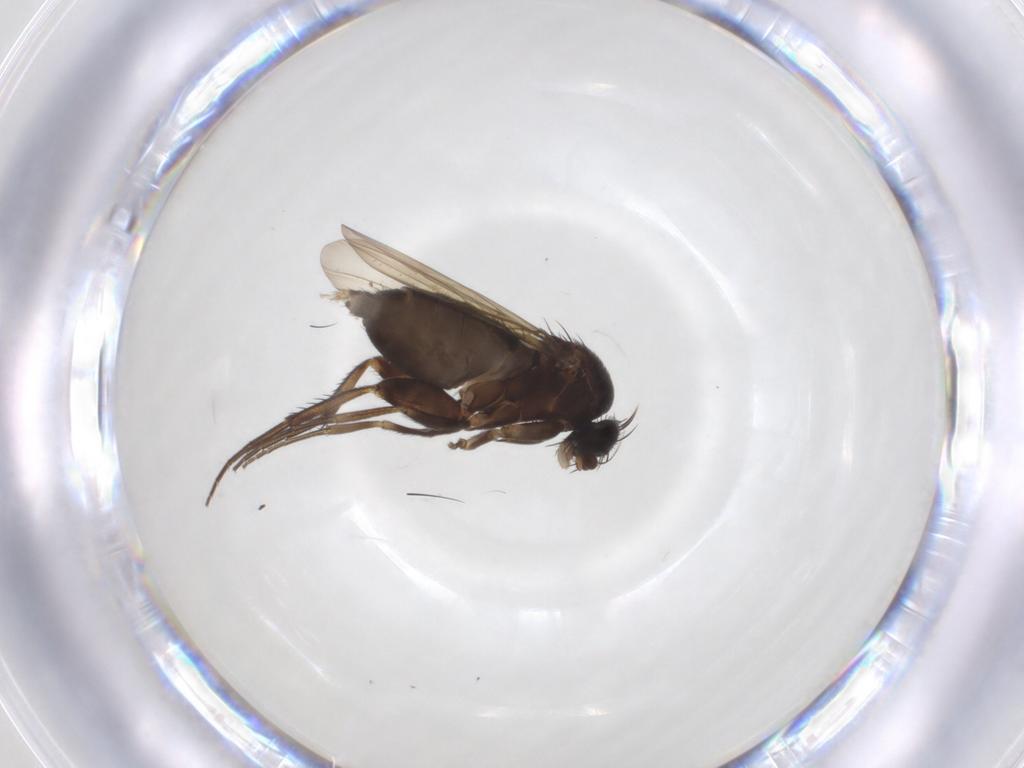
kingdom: Animalia
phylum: Arthropoda
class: Insecta
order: Diptera
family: Phoridae
